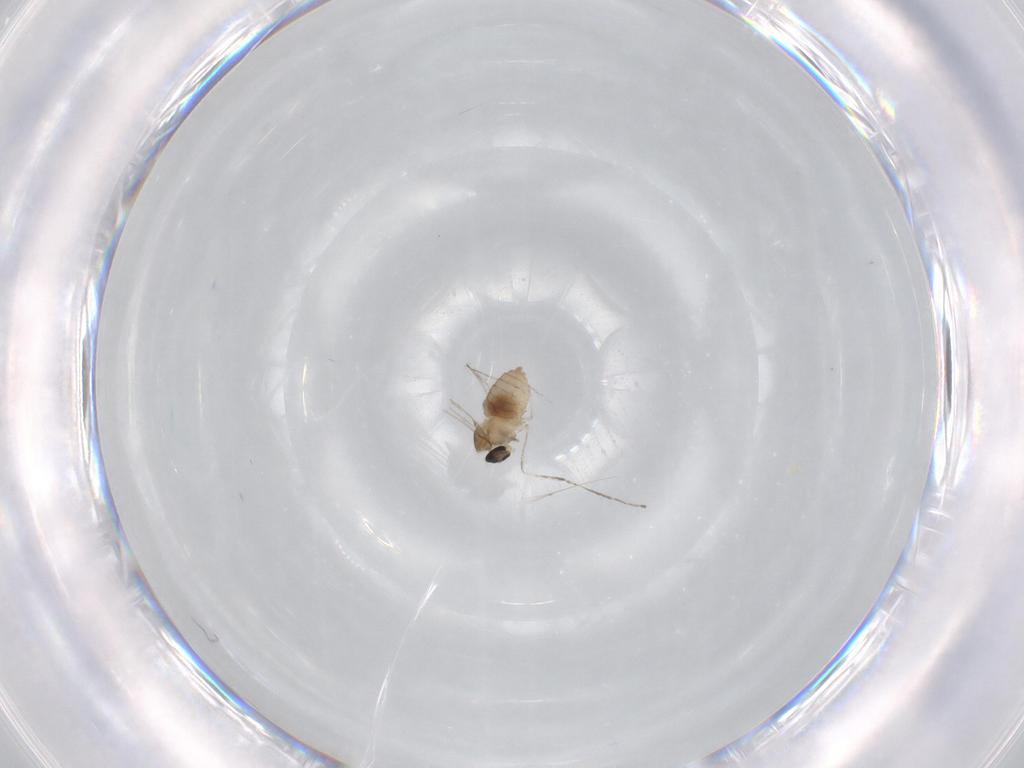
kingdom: Animalia
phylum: Arthropoda
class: Insecta
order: Diptera
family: Cecidomyiidae
